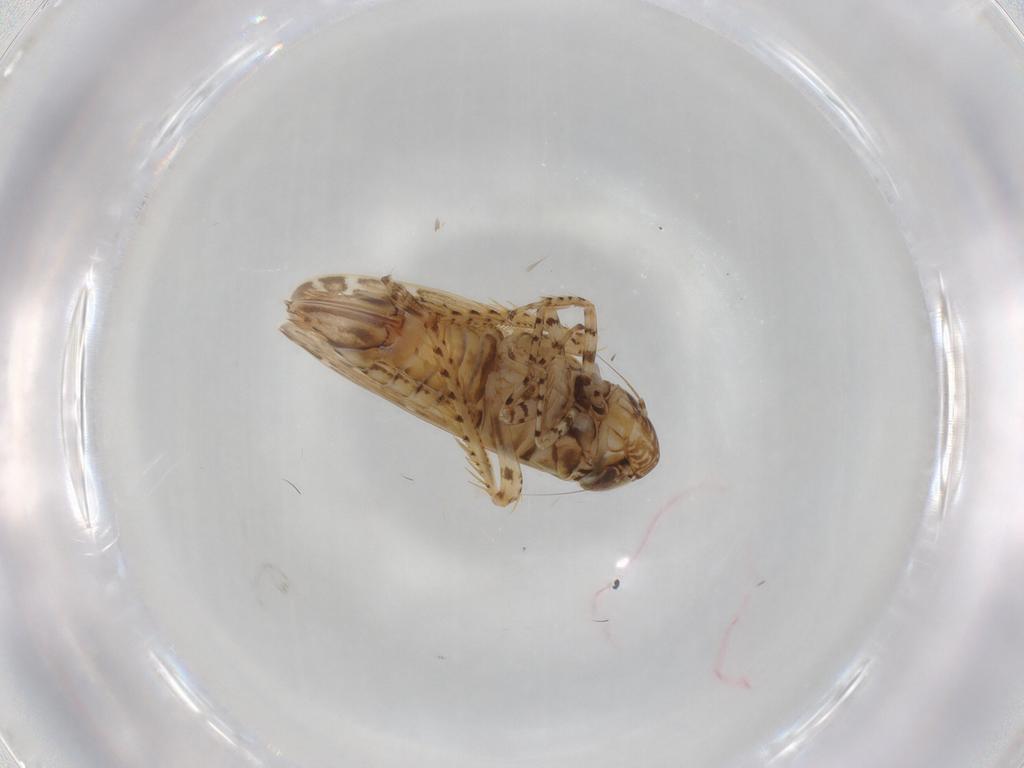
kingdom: Animalia
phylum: Arthropoda
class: Insecta
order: Hemiptera
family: Cicadellidae
